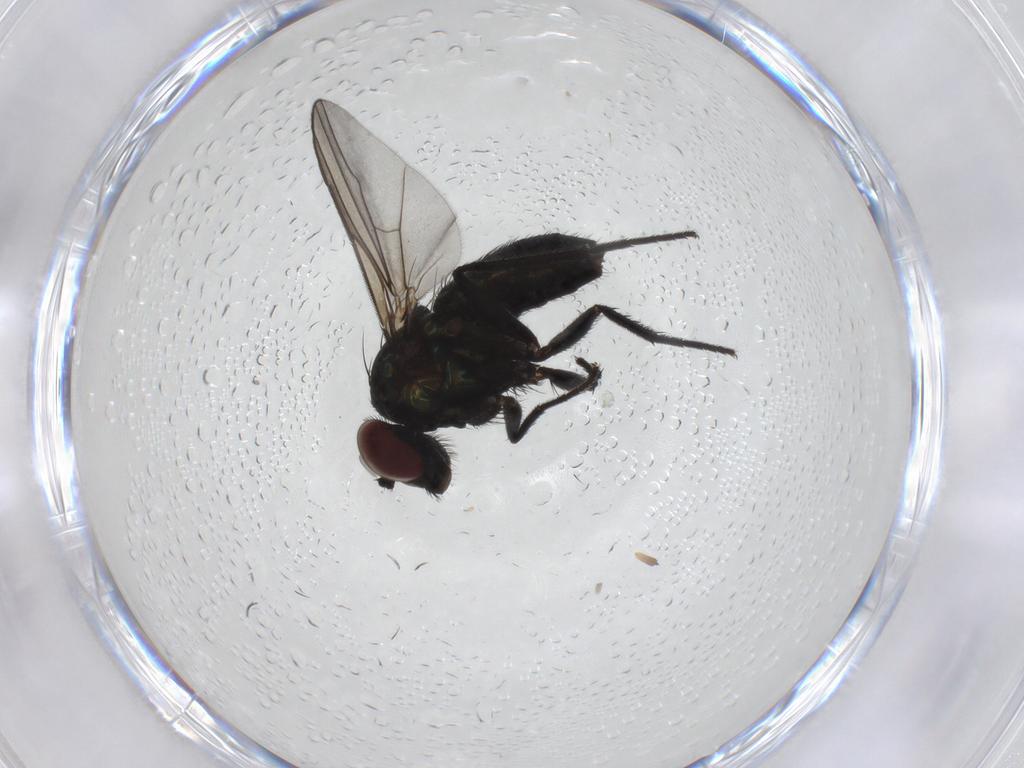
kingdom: Animalia
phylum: Arthropoda
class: Insecta
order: Diptera
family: Dolichopodidae
